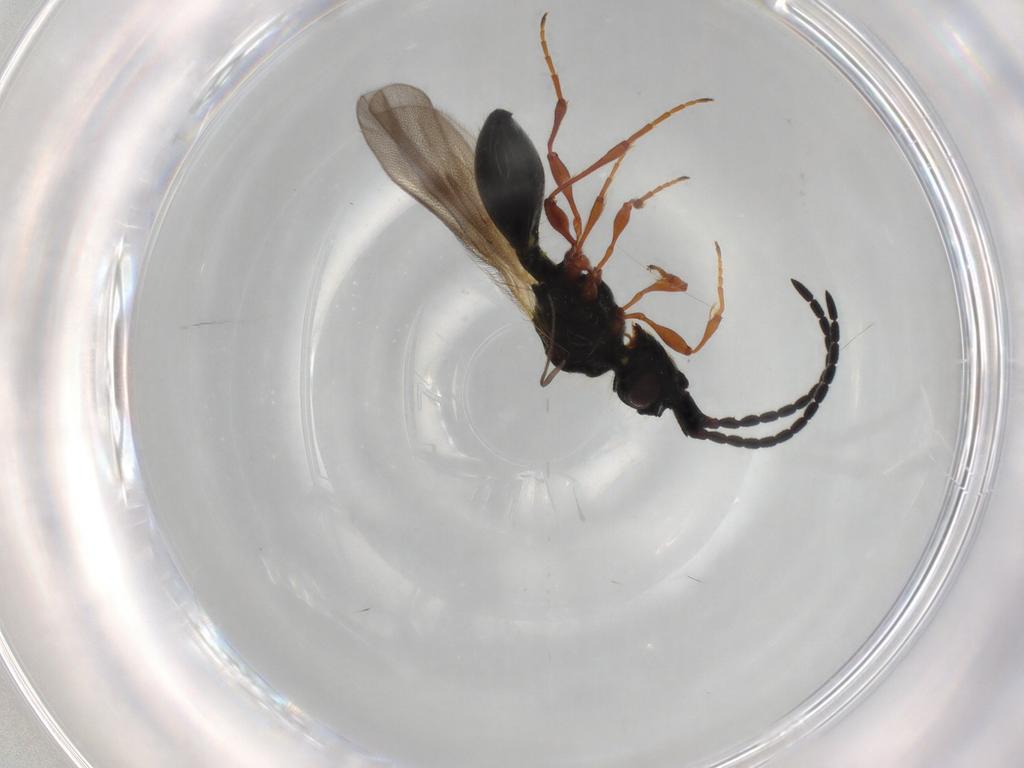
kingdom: Animalia
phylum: Arthropoda
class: Insecta
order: Hymenoptera
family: Diapriidae
